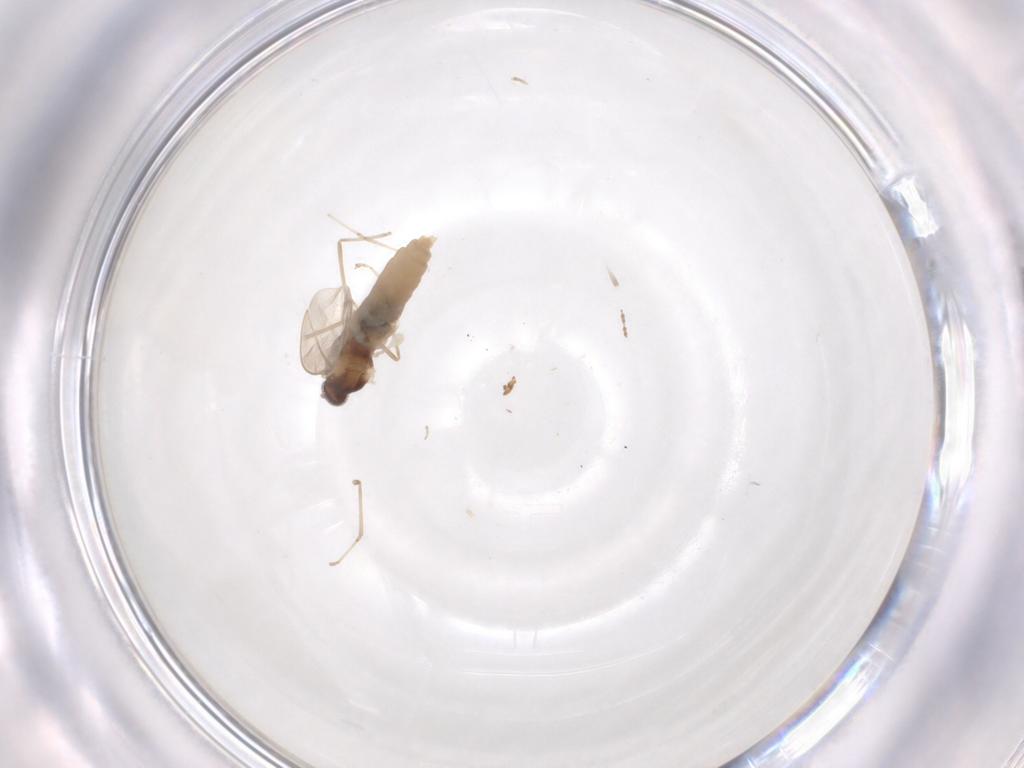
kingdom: Animalia
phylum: Arthropoda
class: Insecta
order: Diptera
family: Cecidomyiidae
